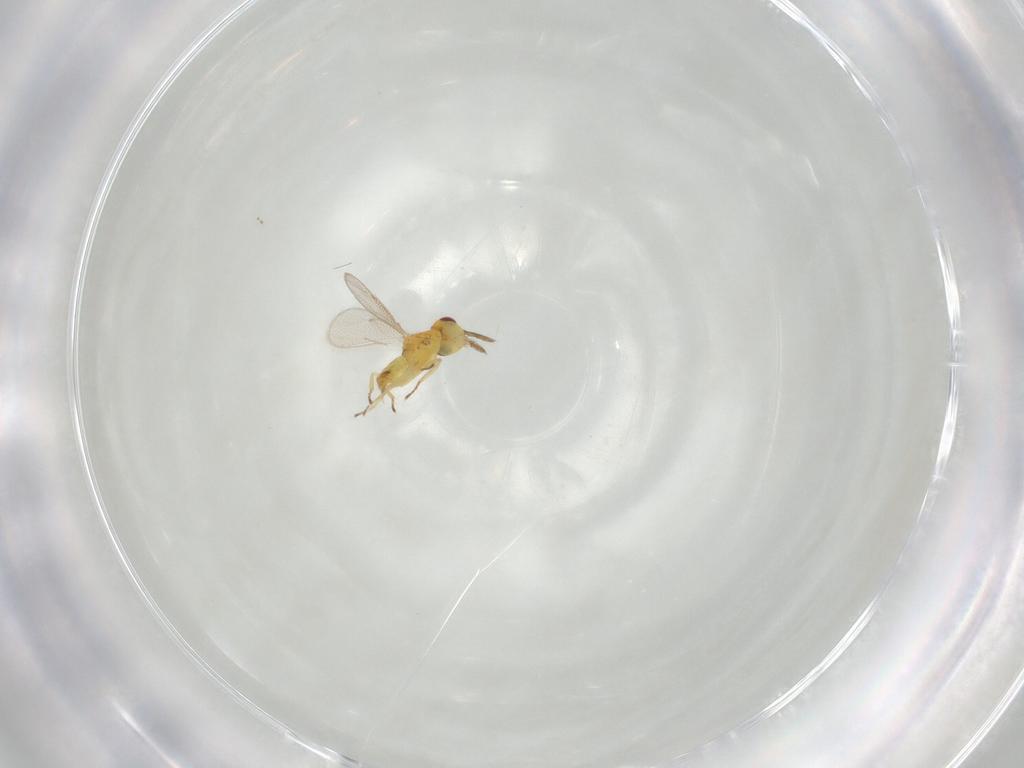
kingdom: Animalia
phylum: Arthropoda
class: Insecta
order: Hymenoptera
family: Eulophidae
